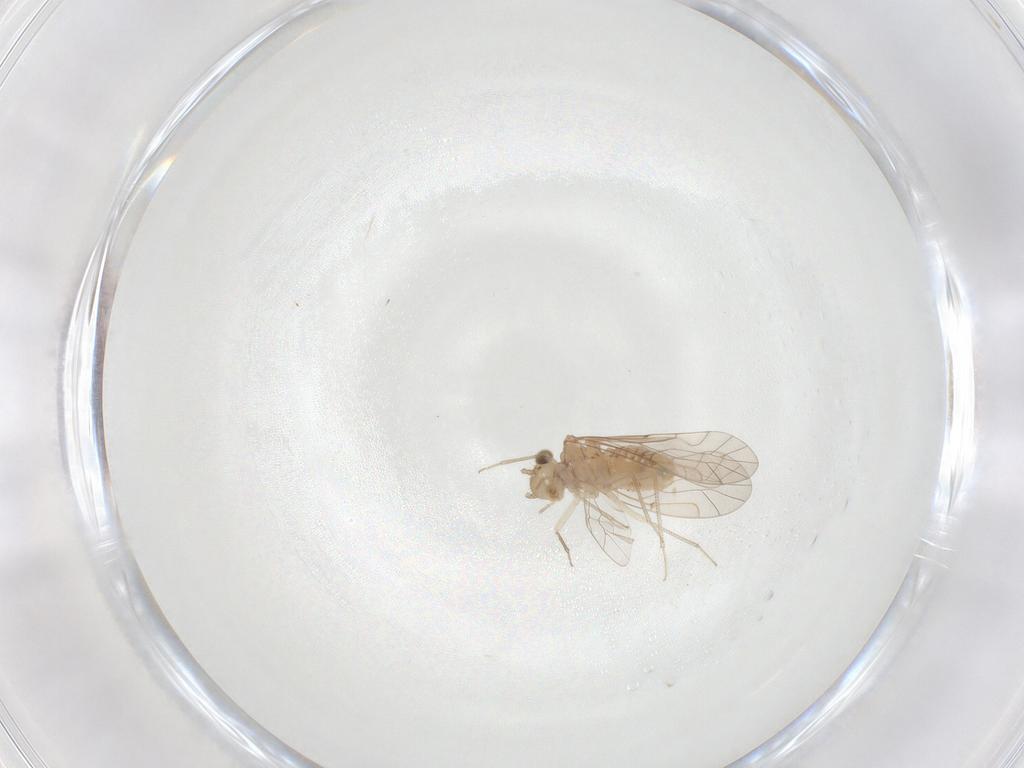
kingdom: Animalia
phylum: Arthropoda
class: Insecta
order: Psocodea
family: Lachesillidae
